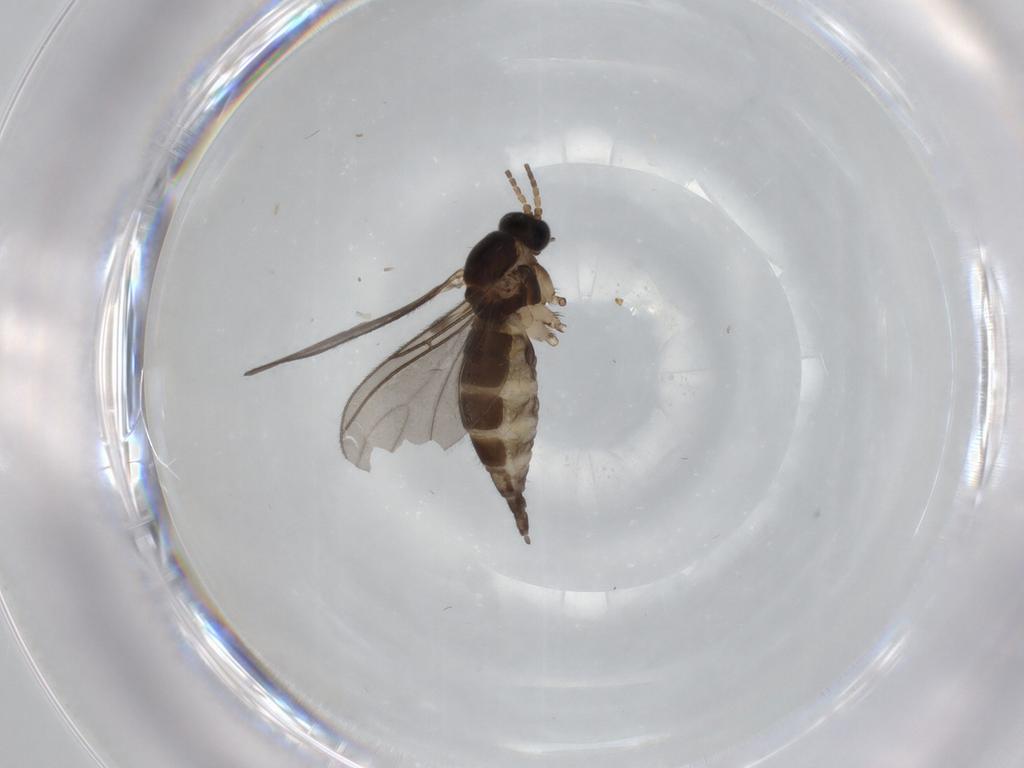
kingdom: Animalia
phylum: Arthropoda
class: Insecta
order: Diptera
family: Sciaridae
